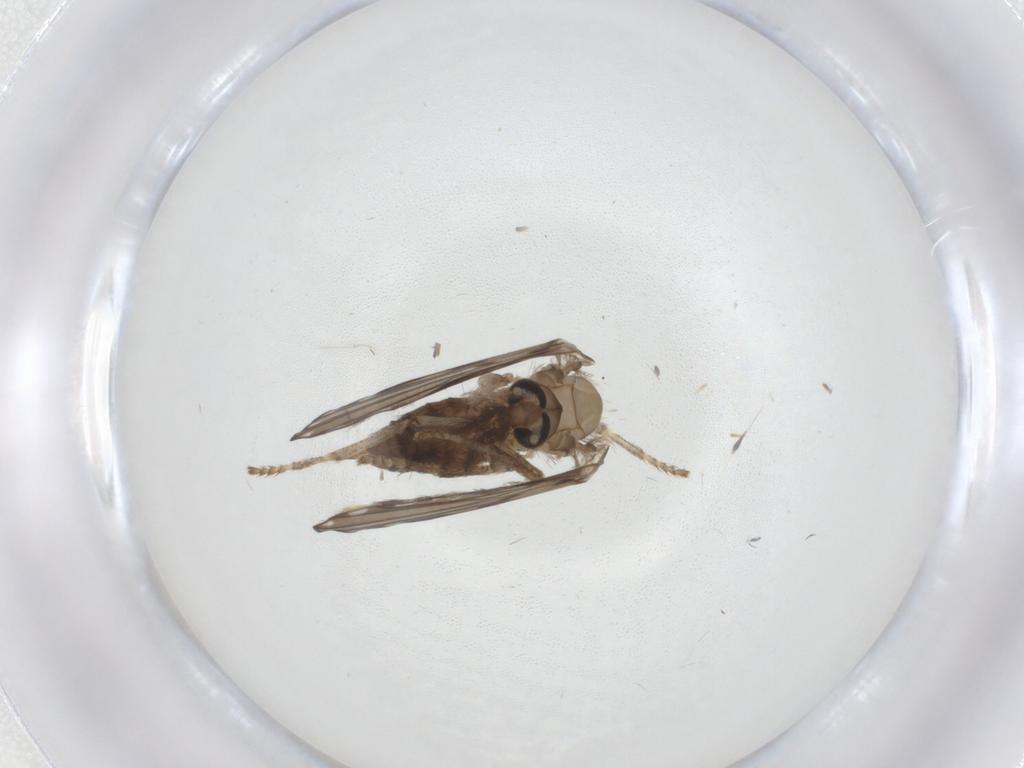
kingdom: Animalia
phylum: Arthropoda
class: Insecta
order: Diptera
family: Psychodidae
